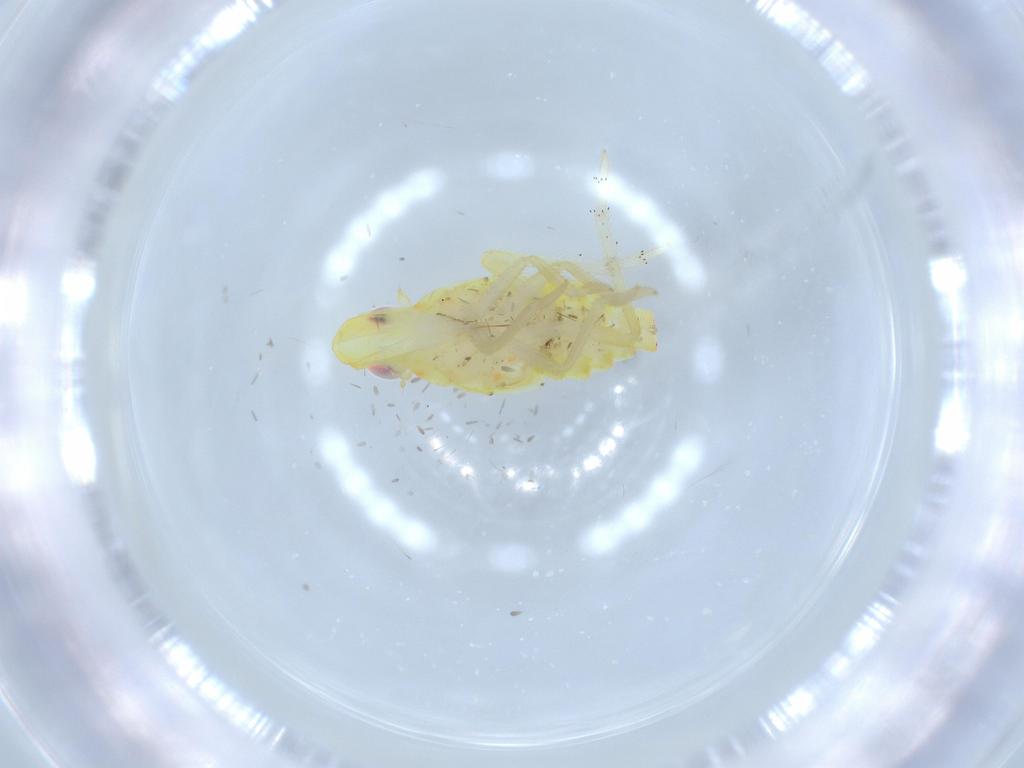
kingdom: Animalia
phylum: Arthropoda
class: Insecta
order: Hemiptera
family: Tropiduchidae
